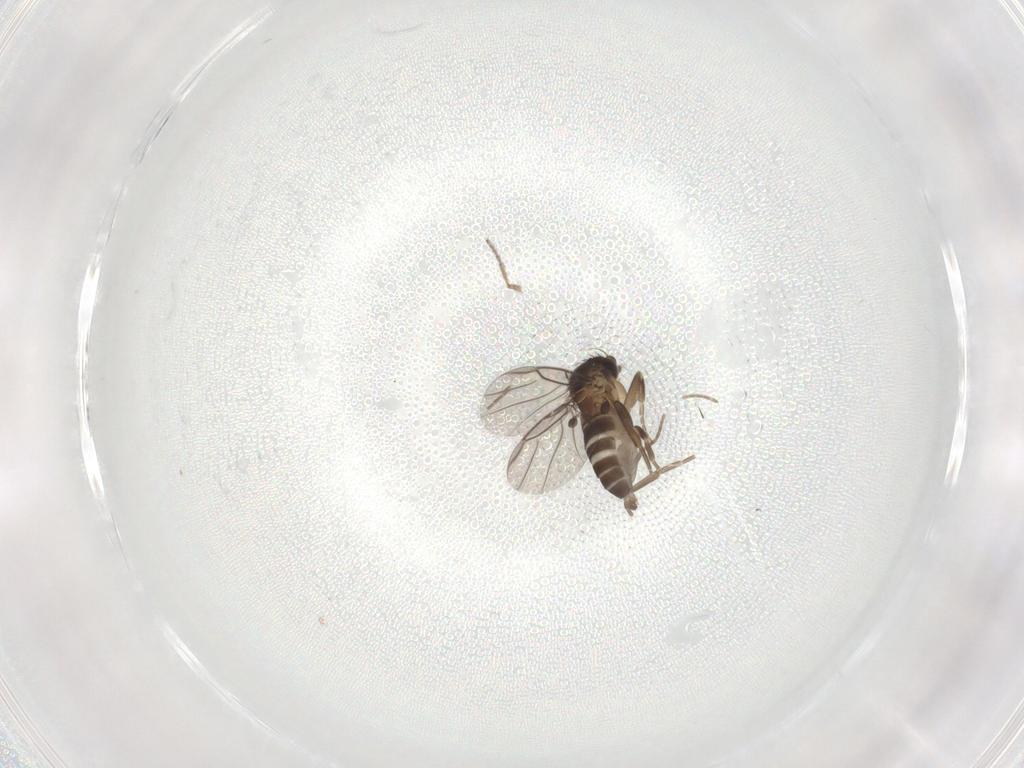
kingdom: Animalia
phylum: Arthropoda
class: Insecta
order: Diptera
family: Ceratopogonidae
